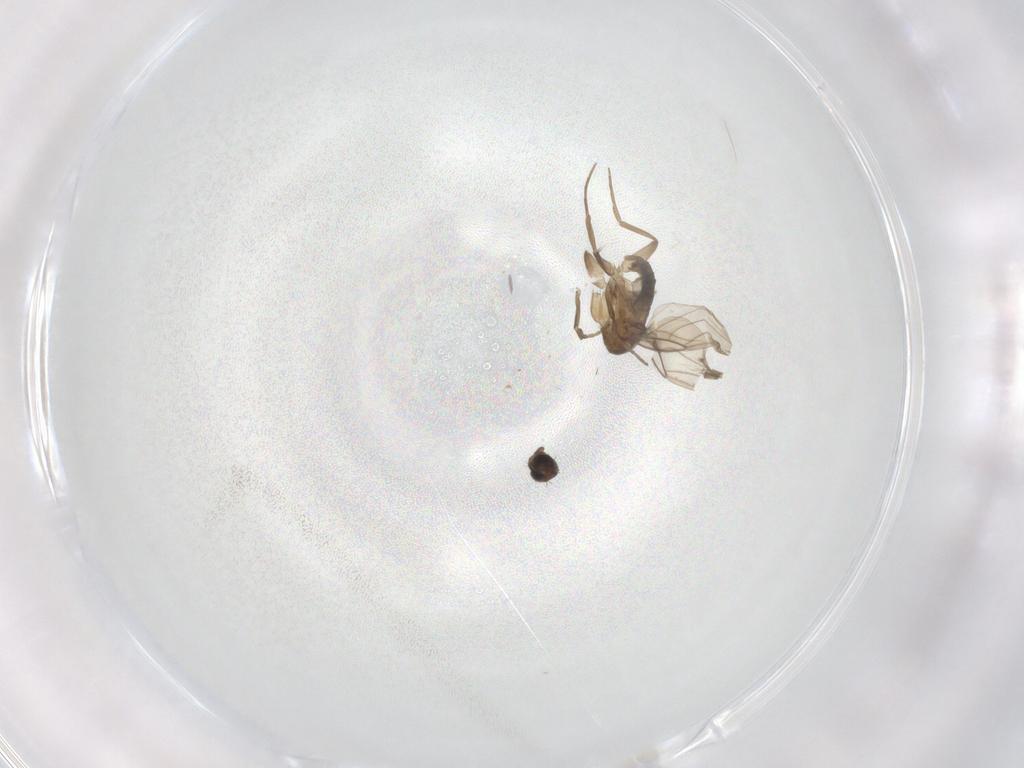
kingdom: Animalia
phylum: Arthropoda
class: Insecta
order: Diptera
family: Phoridae
